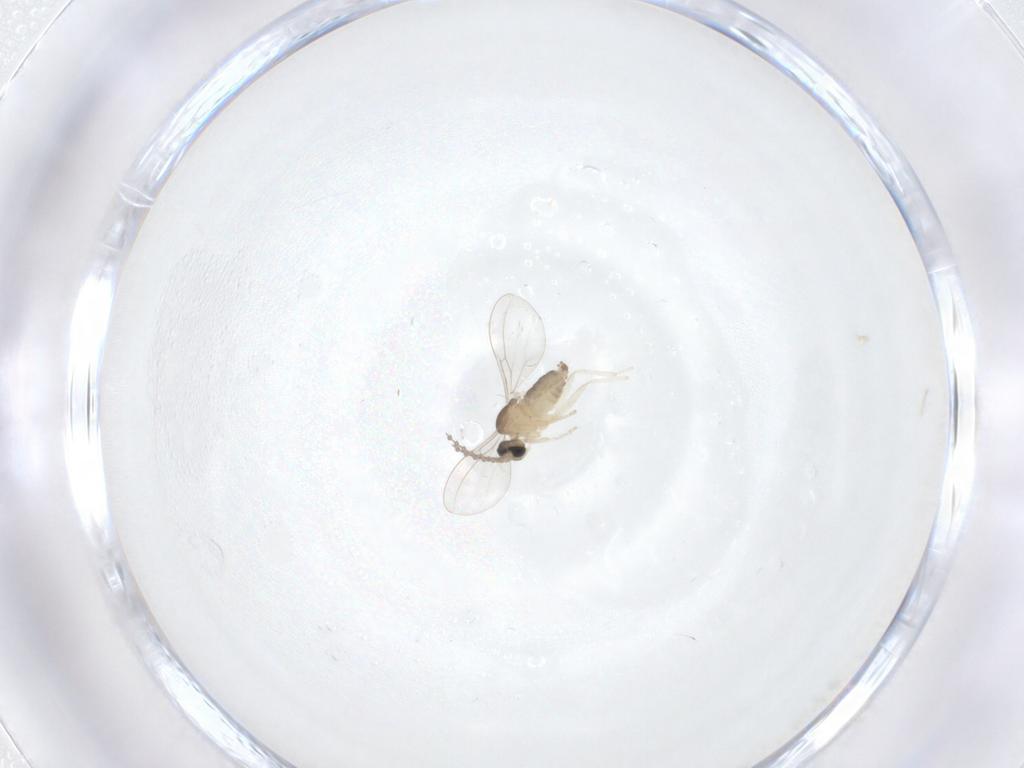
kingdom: Animalia
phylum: Arthropoda
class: Insecta
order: Diptera
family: Cecidomyiidae
